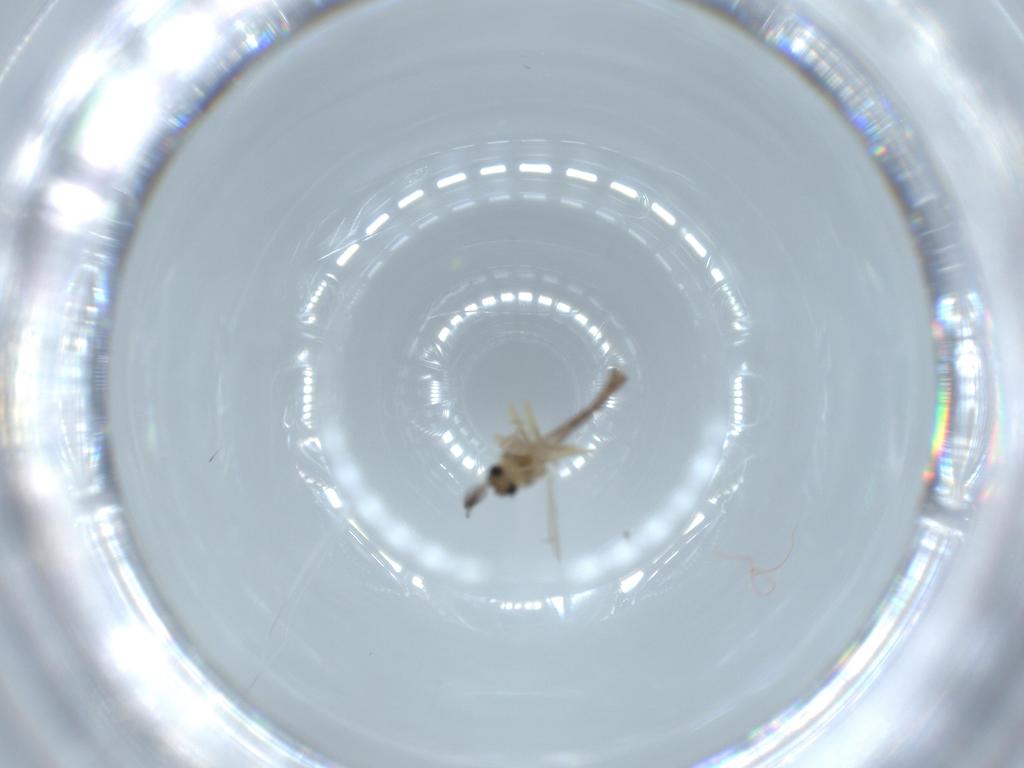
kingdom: Animalia
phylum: Arthropoda
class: Insecta
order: Diptera
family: Ceratopogonidae
